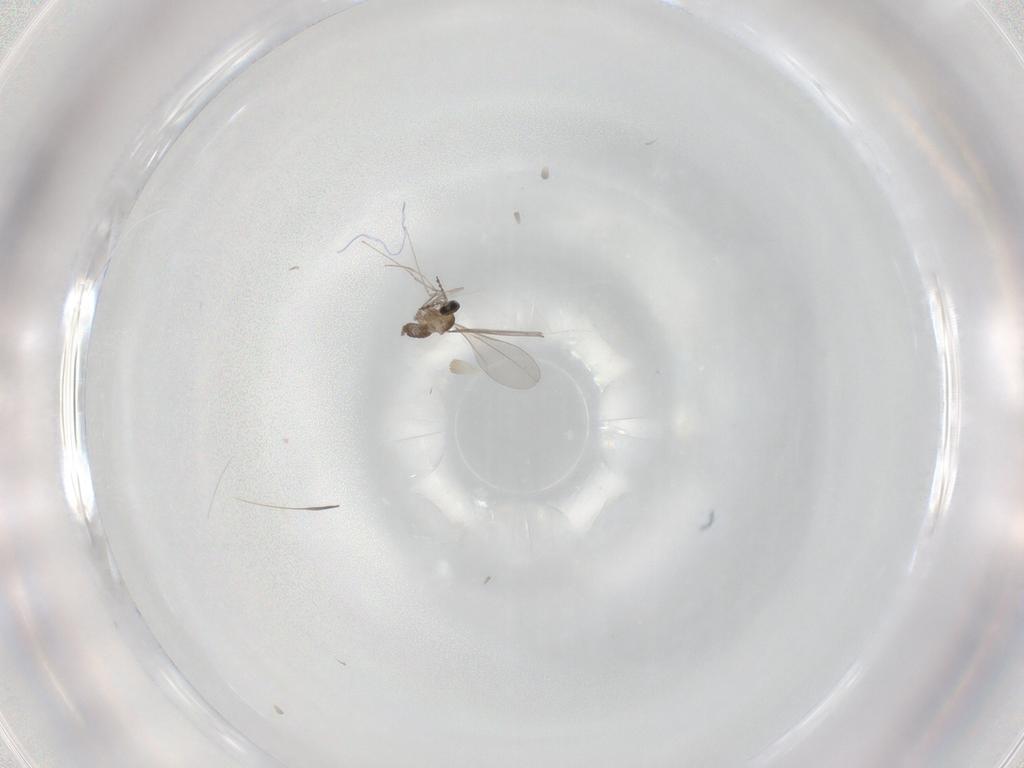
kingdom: Animalia
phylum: Arthropoda
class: Insecta
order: Diptera
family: Cecidomyiidae
